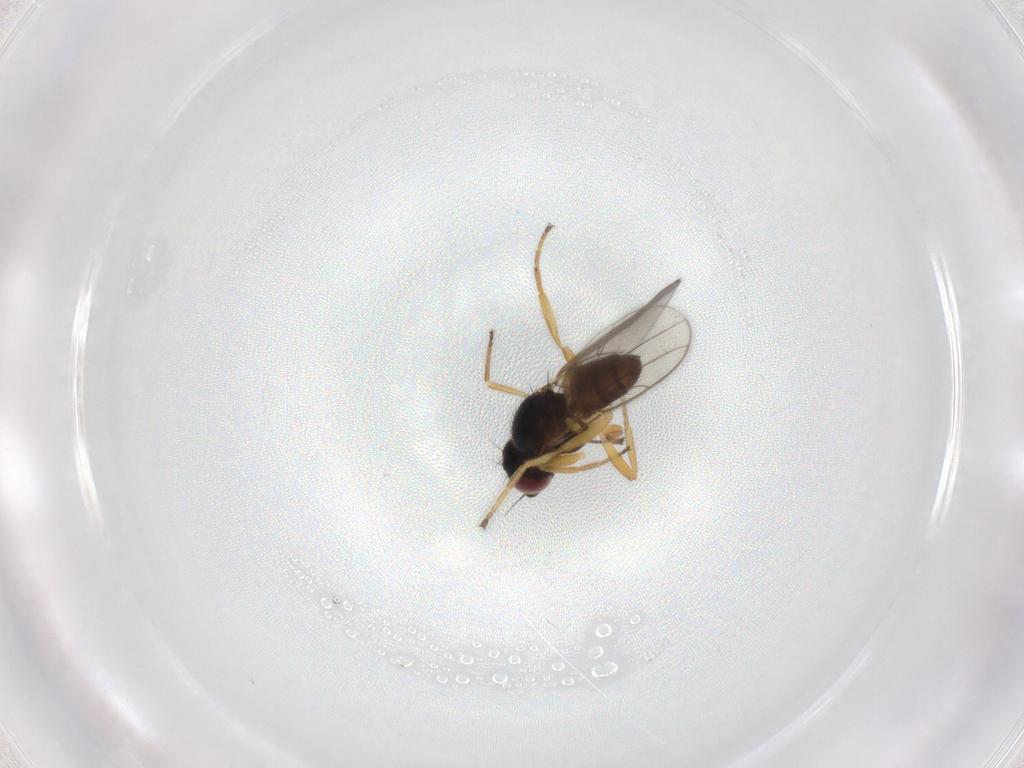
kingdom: Animalia
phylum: Arthropoda
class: Insecta
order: Diptera
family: Chloropidae
